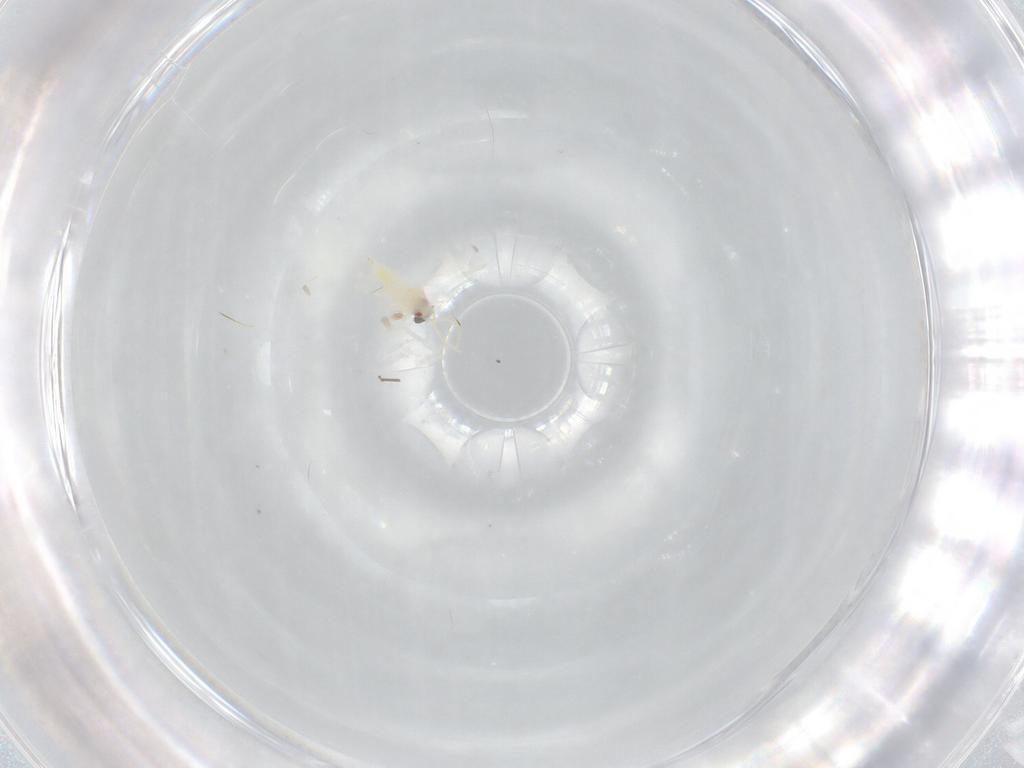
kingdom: Animalia
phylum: Arthropoda
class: Insecta
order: Hemiptera
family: Aleyrodidae
